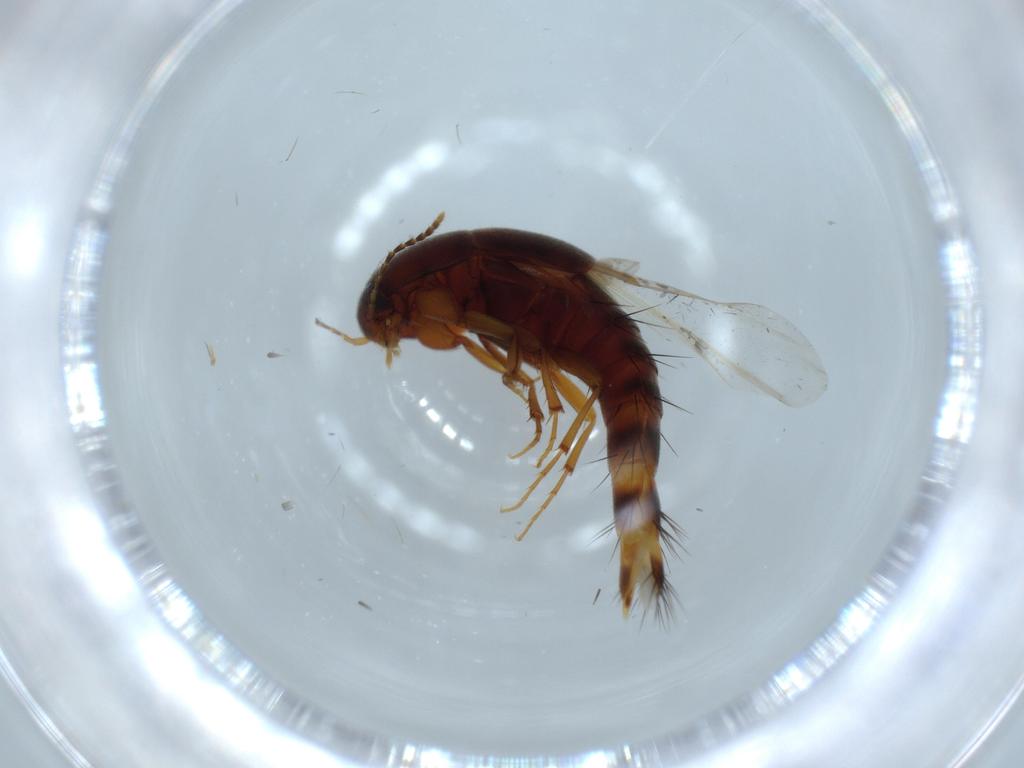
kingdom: Animalia
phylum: Arthropoda
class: Insecta
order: Coleoptera
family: Staphylinidae
